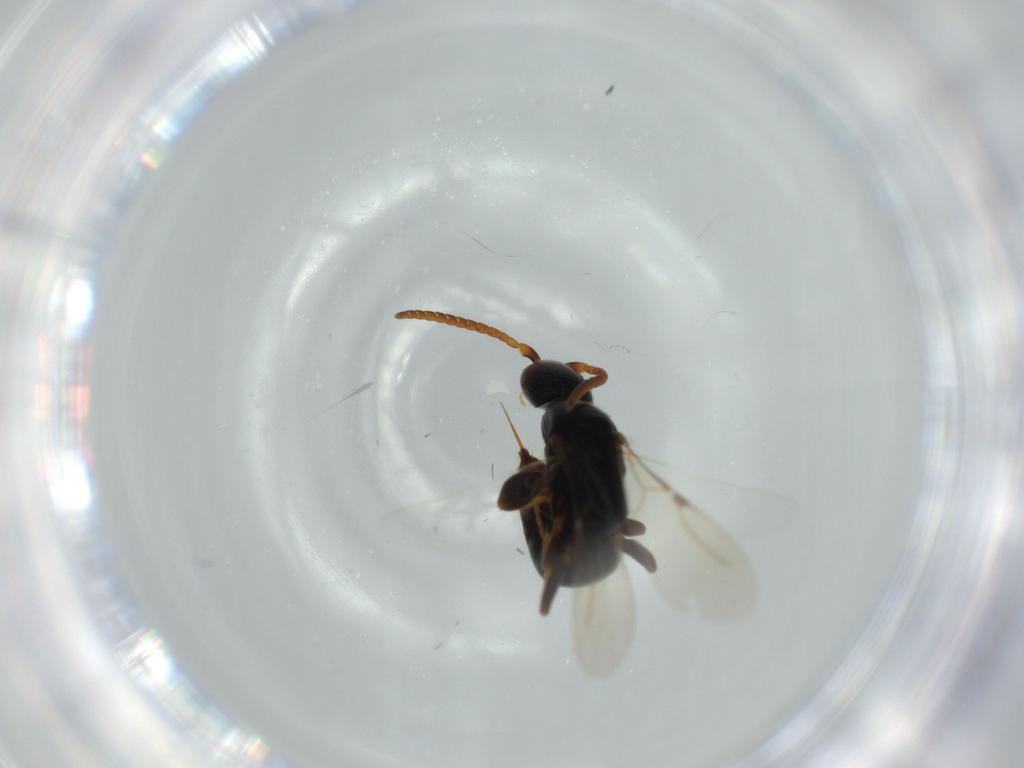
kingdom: Animalia
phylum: Arthropoda
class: Insecta
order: Hymenoptera
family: Bethylidae
